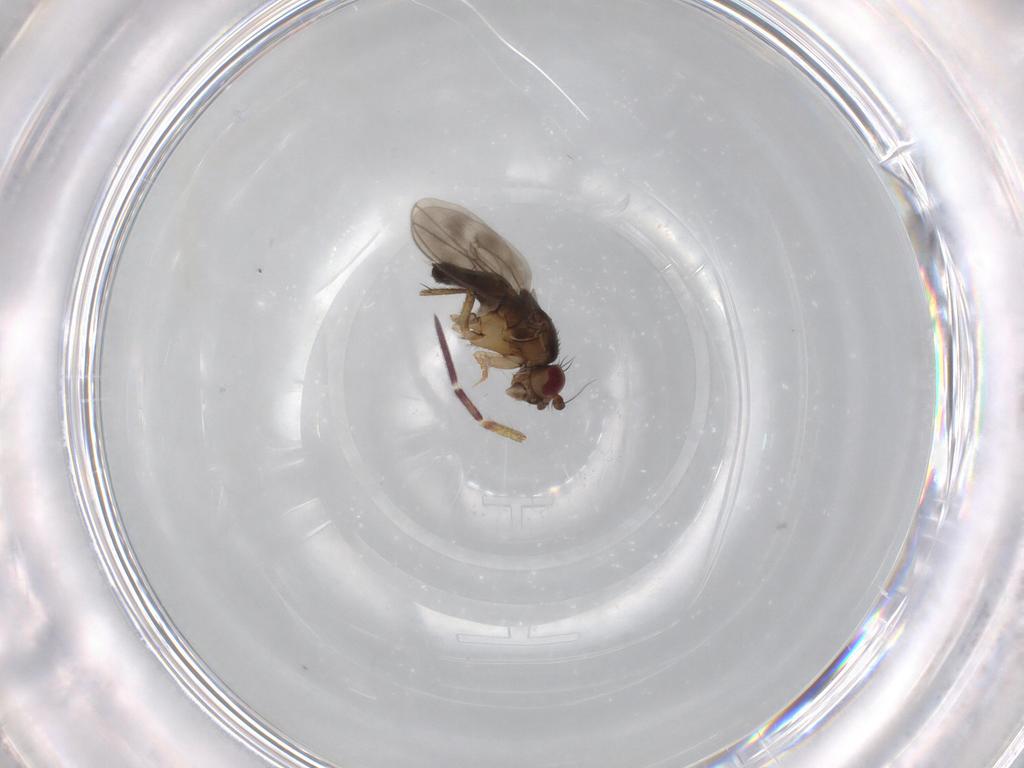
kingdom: Animalia
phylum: Arthropoda
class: Insecta
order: Diptera
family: Sphaeroceridae
